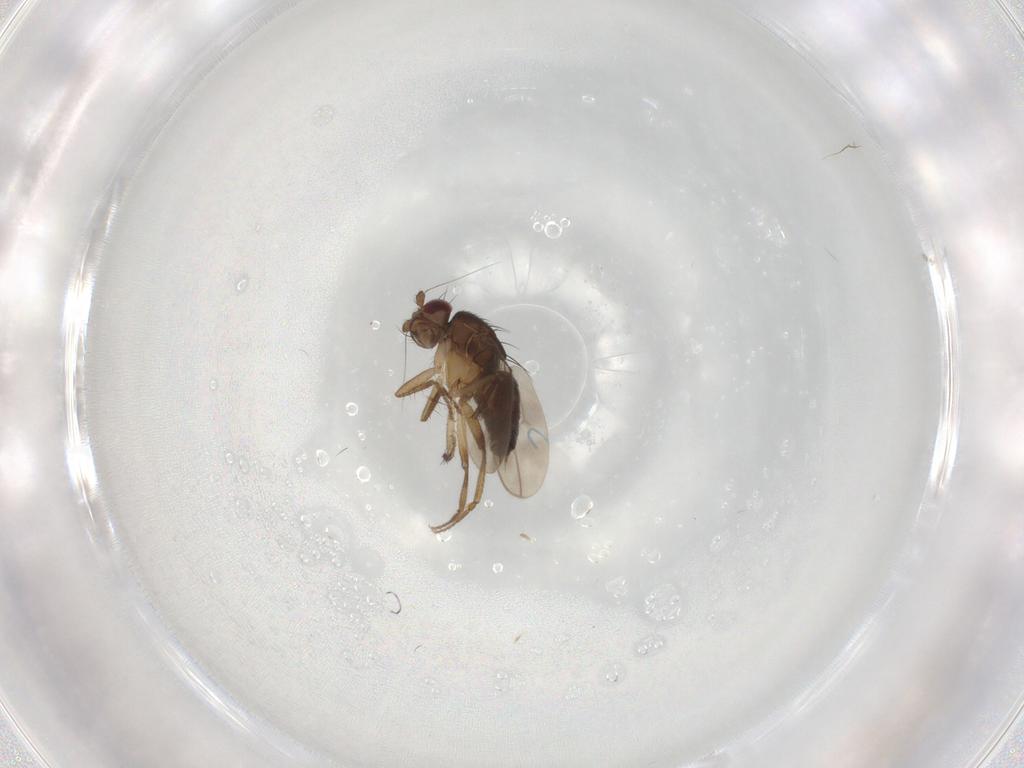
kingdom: Animalia
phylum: Arthropoda
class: Insecta
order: Diptera
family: Sphaeroceridae
